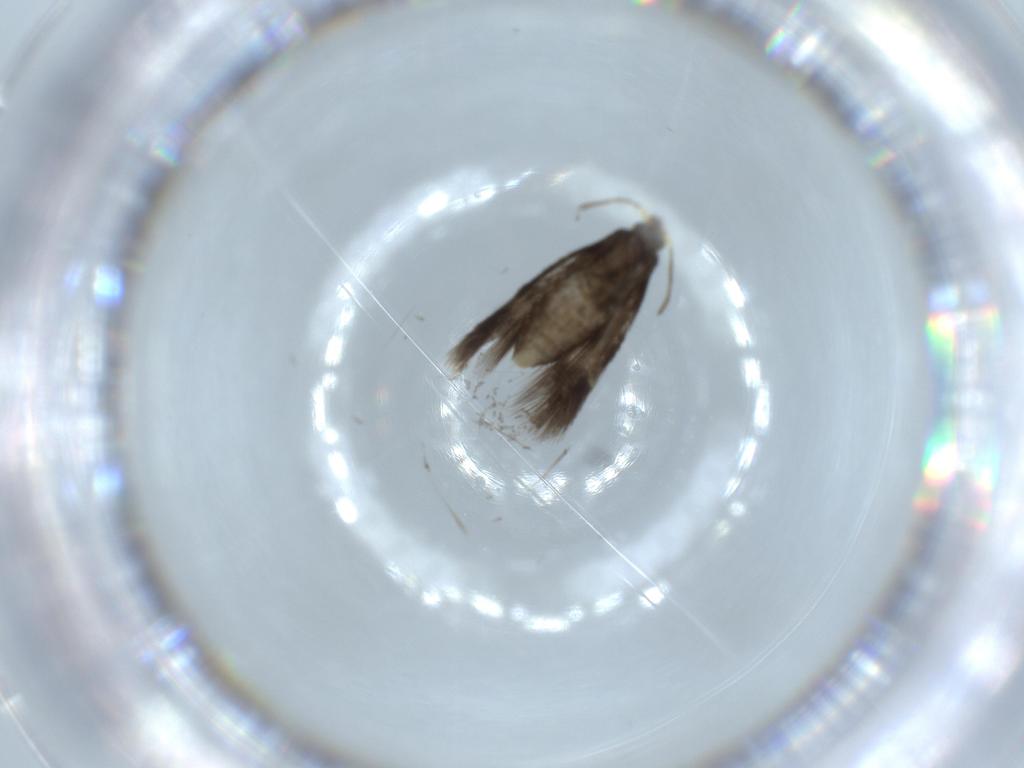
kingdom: Animalia
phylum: Arthropoda
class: Insecta
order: Lepidoptera
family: Nepticulidae
